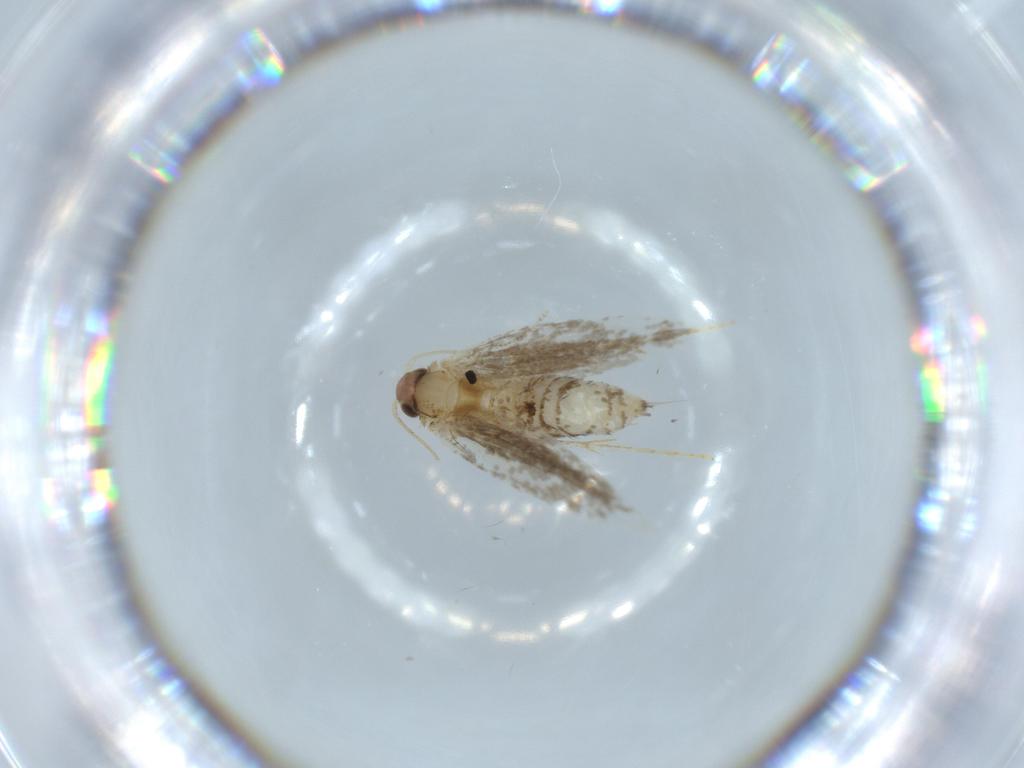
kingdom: Animalia
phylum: Arthropoda
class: Insecta
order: Lepidoptera
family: Tineidae
